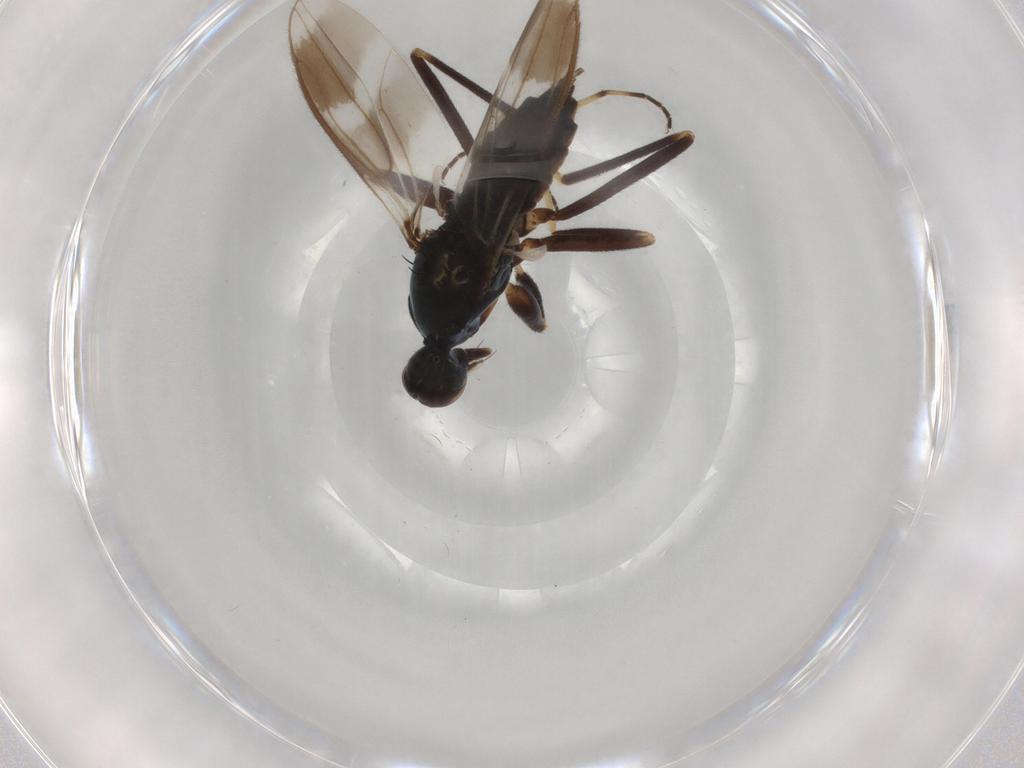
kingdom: Animalia
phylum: Arthropoda
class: Insecta
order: Diptera
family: Hybotidae
